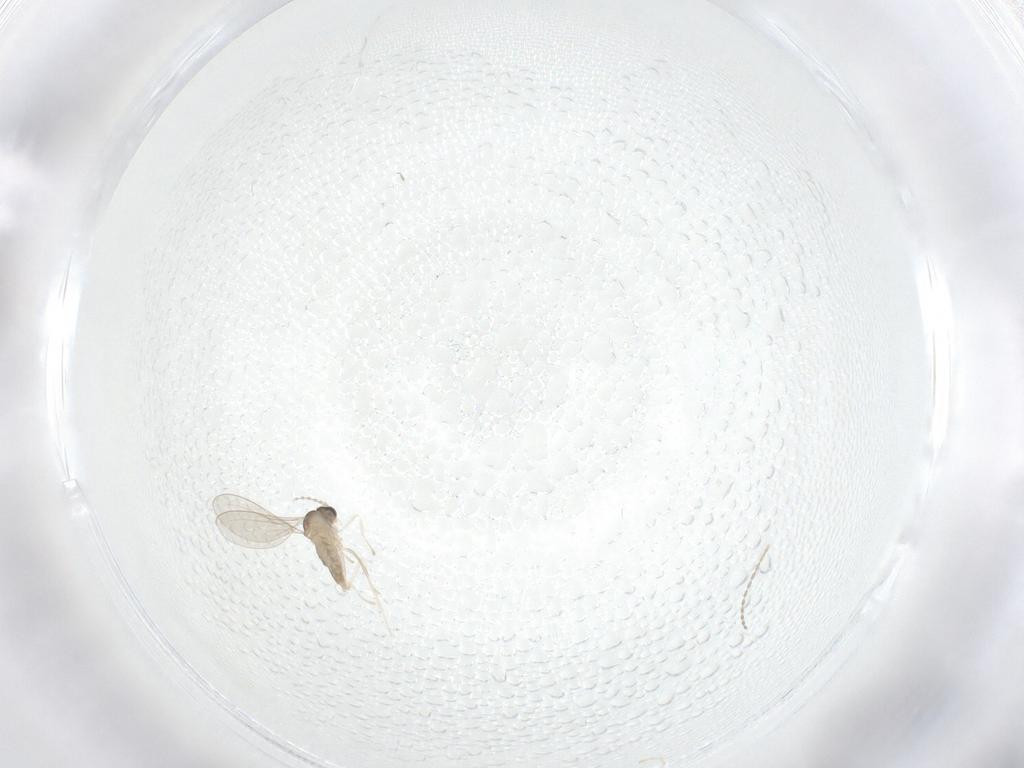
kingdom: Animalia
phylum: Arthropoda
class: Insecta
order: Diptera
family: Cecidomyiidae
